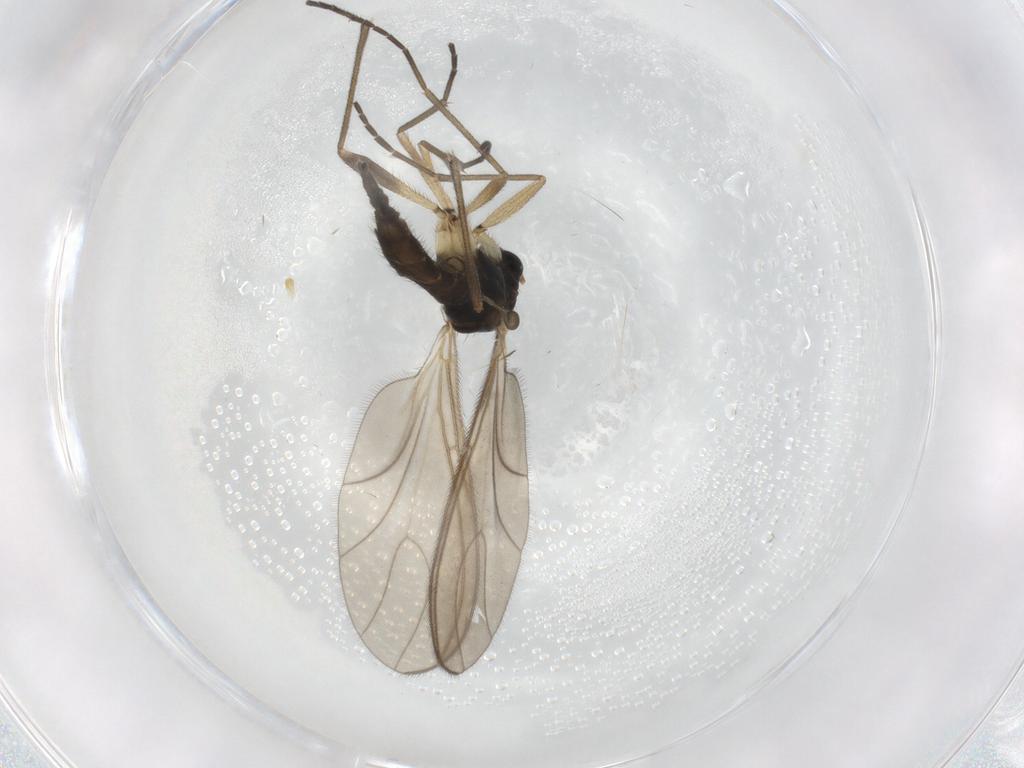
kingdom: Animalia
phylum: Arthropoda
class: Insecta
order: Diptera
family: Sciaridae
